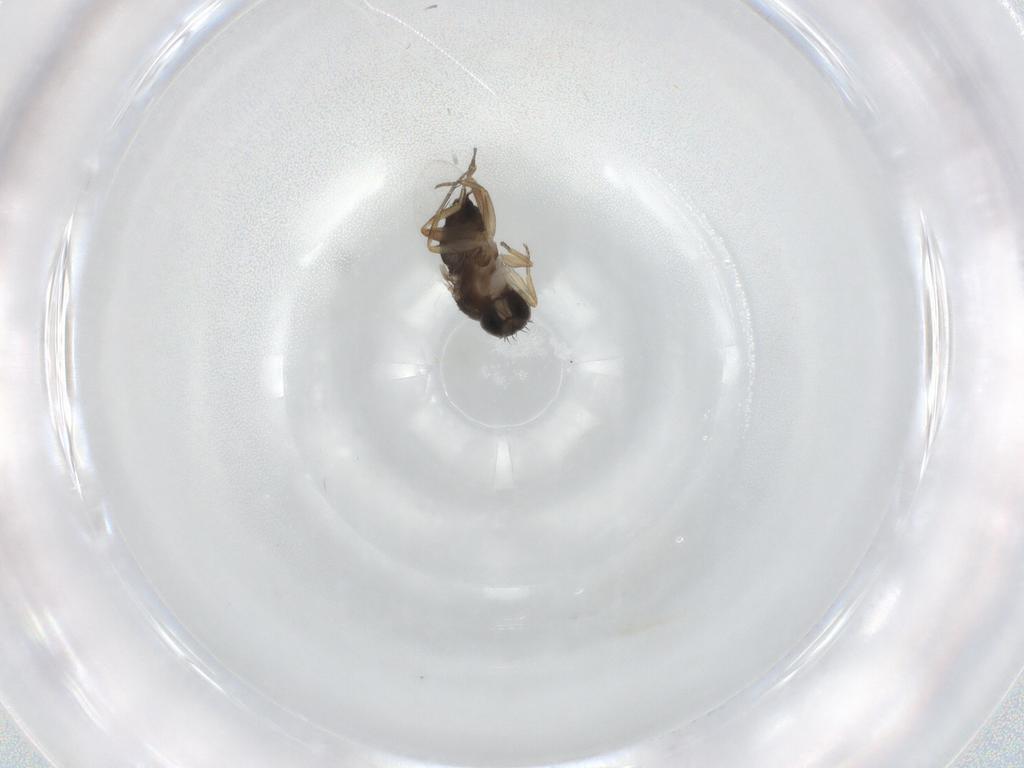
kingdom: Animalia
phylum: Arthropoda
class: Insecta
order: Diptera
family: Phoridae
